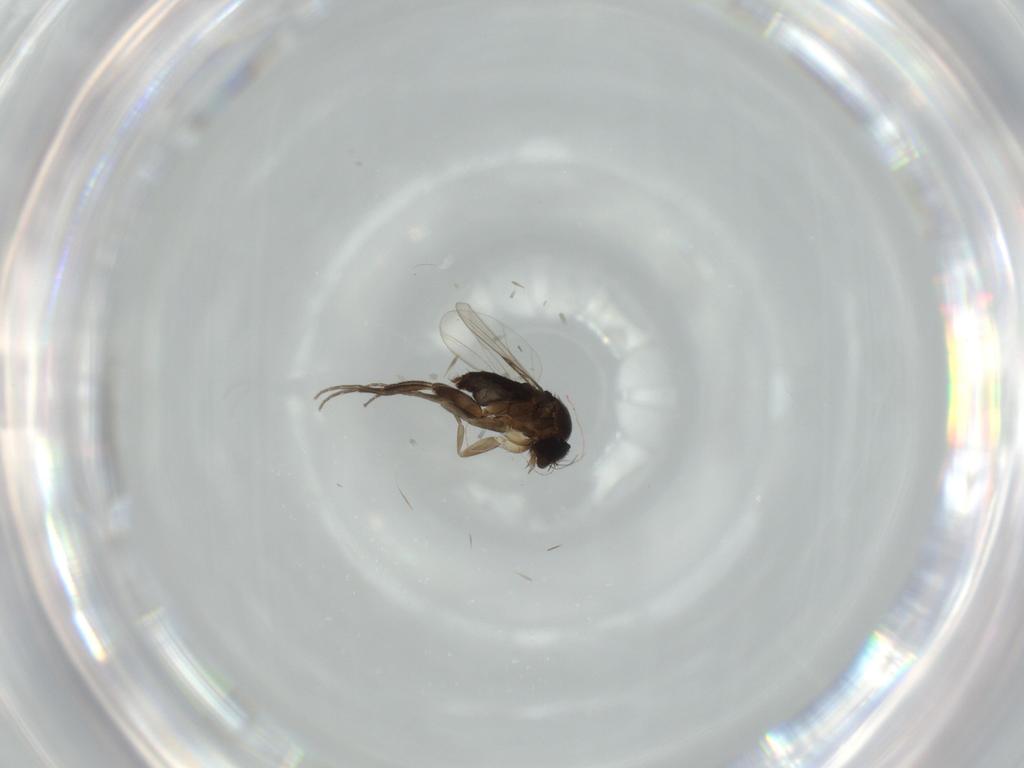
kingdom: Animalia
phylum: Arthropoda
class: Insecta
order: Diptera
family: Phoridae
